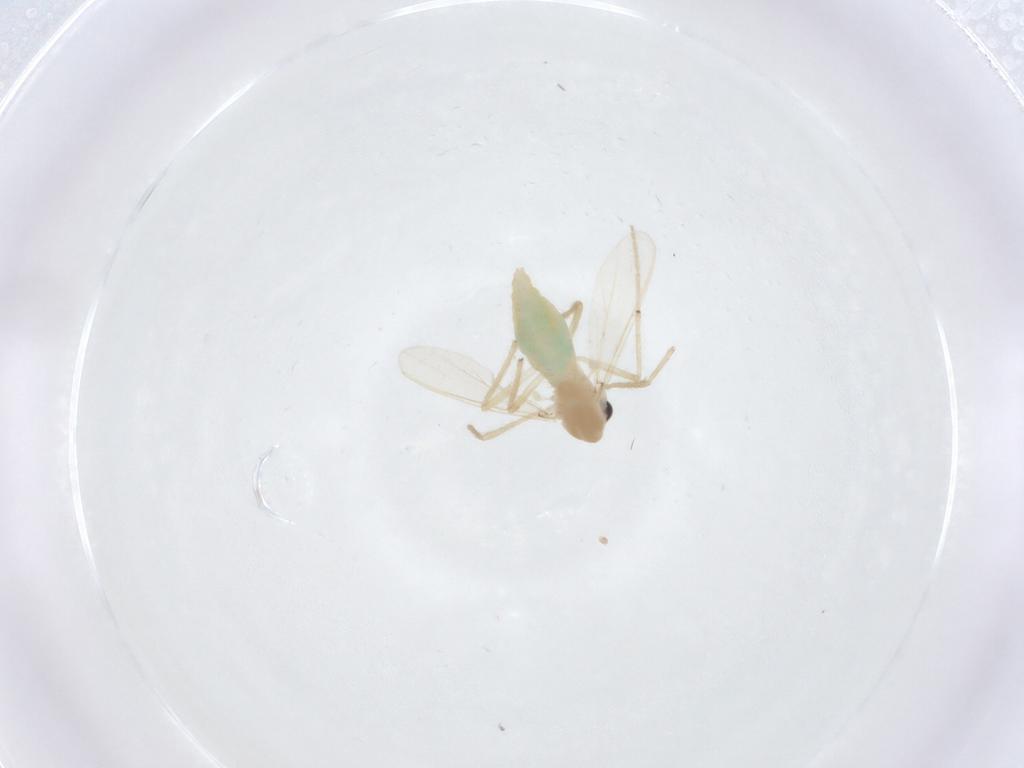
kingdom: Animalia
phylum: Arthropoda
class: Insecta
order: Diptera
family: Chironomidae
